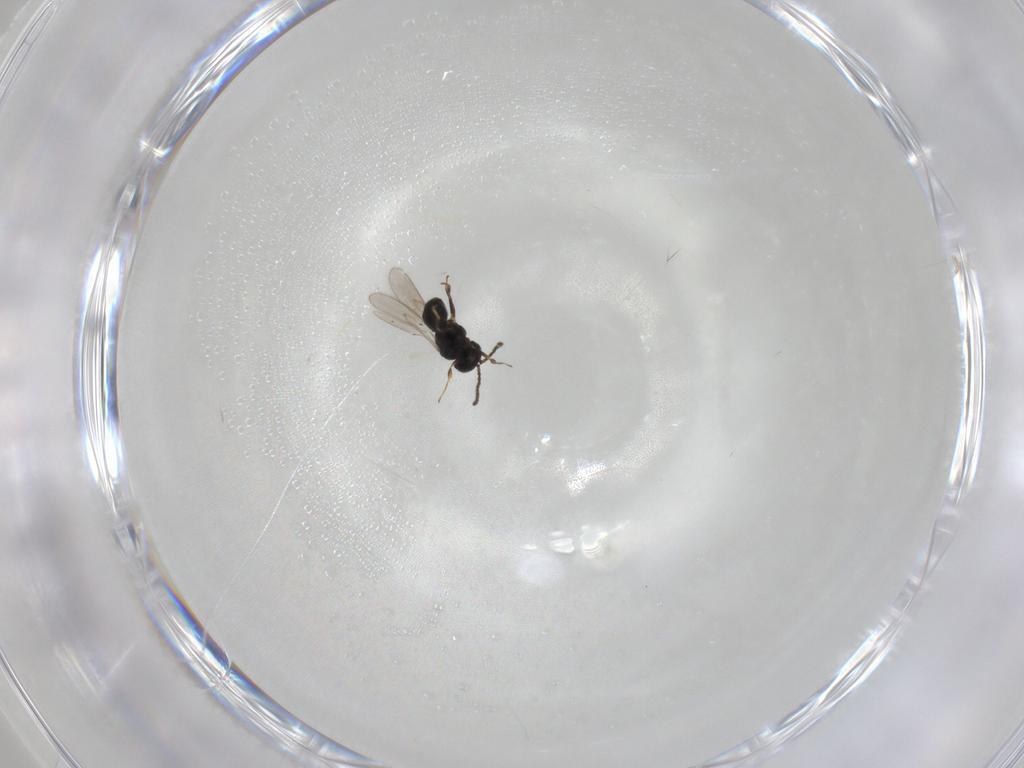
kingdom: Animalia
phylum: Arthropoda
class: Insecta
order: Hymenoptera
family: Scelionidae
